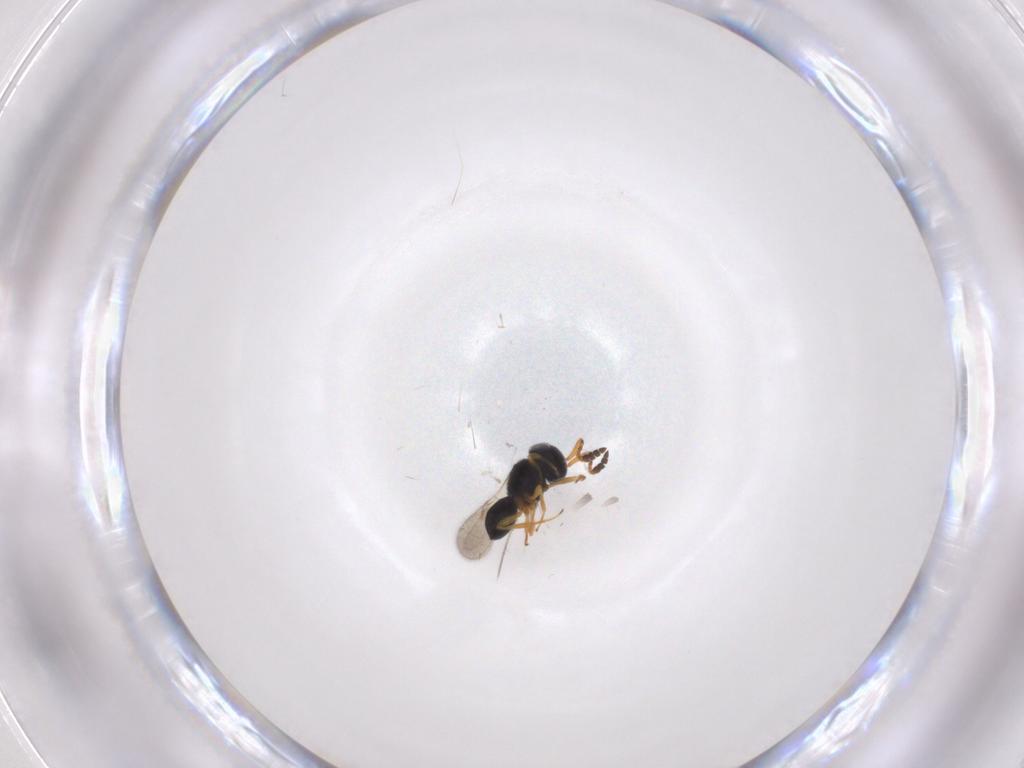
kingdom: Animalia
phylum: Arthropoda
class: Insecta
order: Hymenoptera
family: Scelionidae
